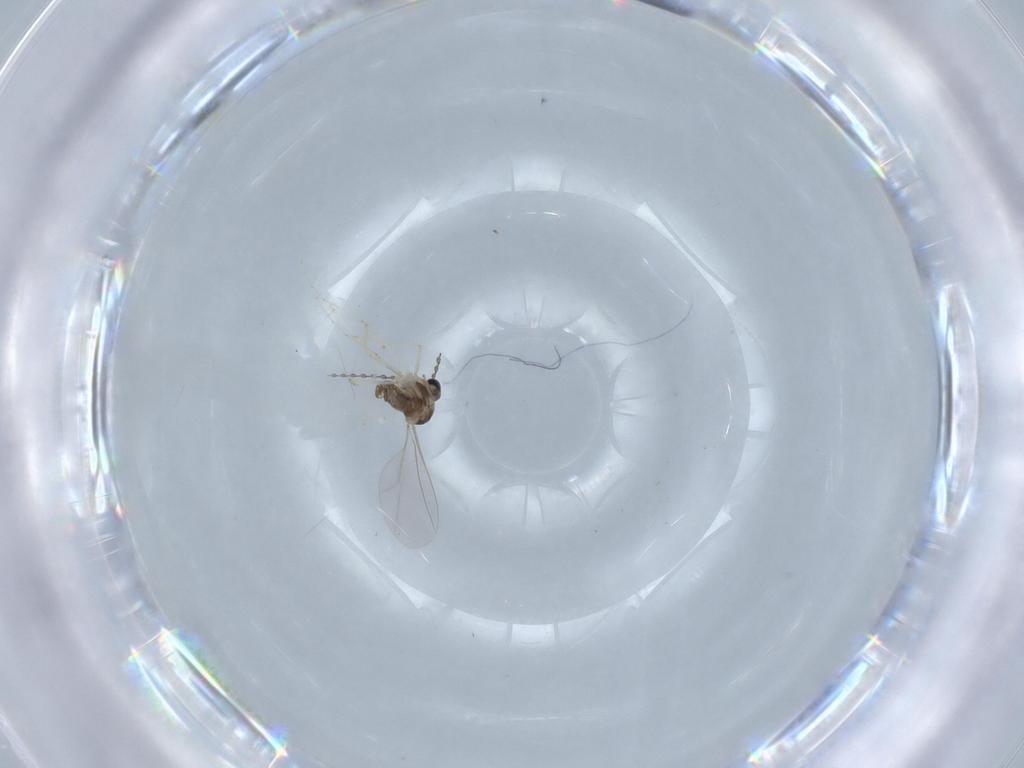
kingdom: Animalia
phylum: Arthropoda
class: Insecta
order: Diptera
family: Cecidomyiidae
